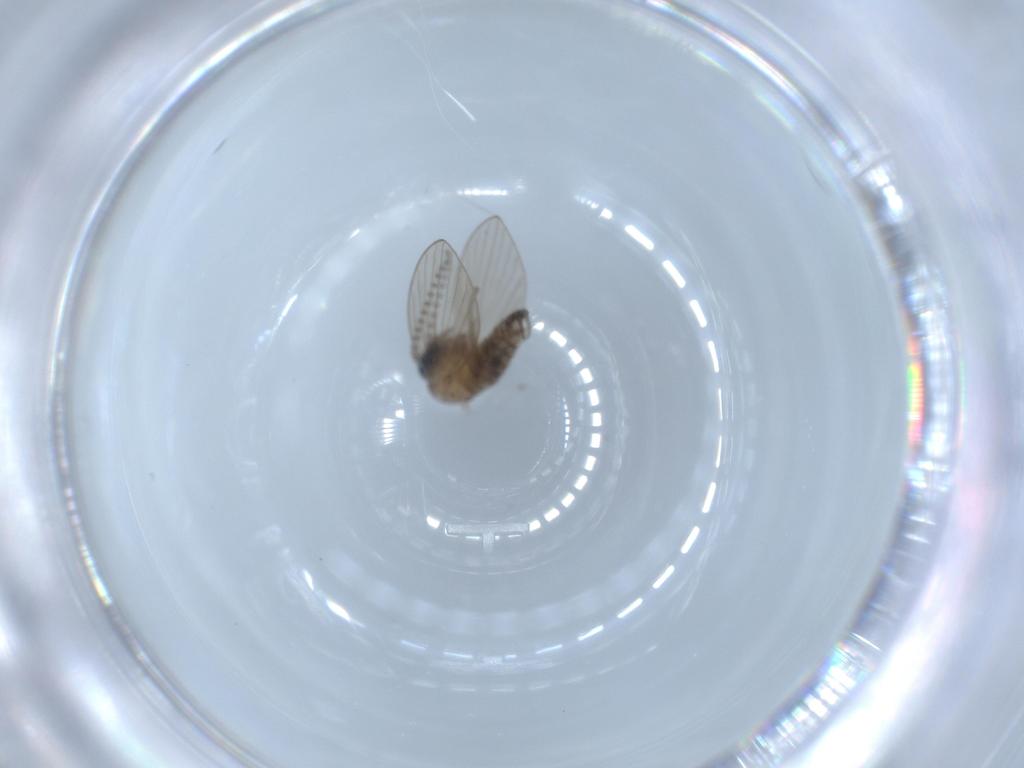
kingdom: Animalia
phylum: Arthropoda
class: Insecta
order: Diptera
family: Psychodidae
